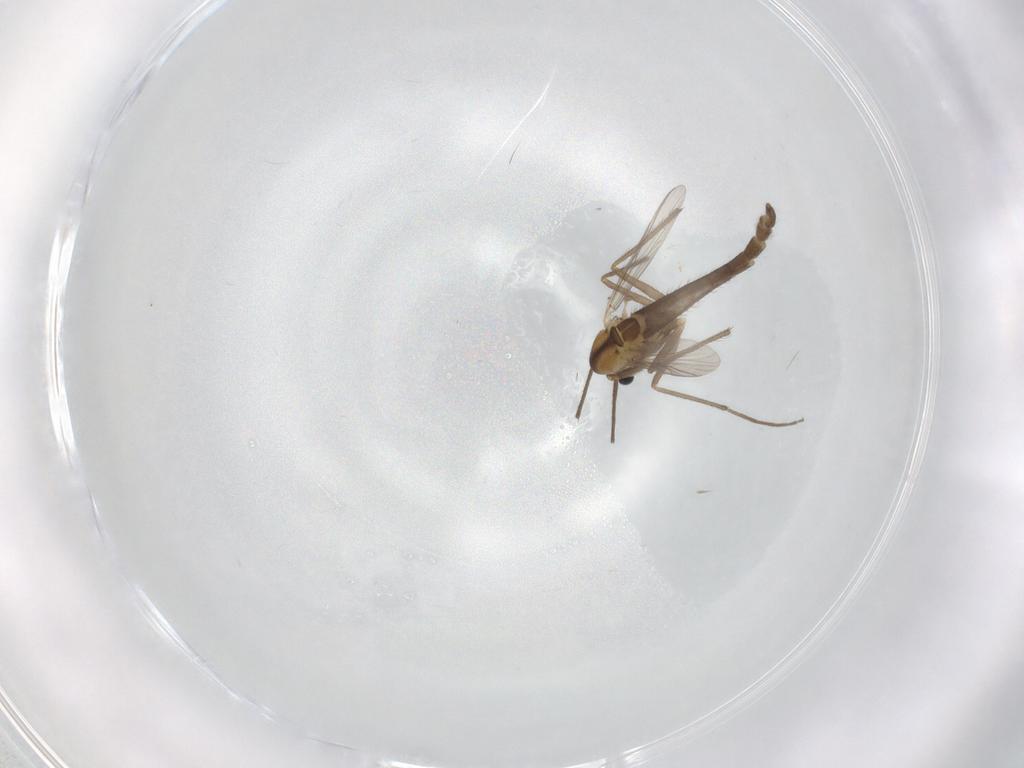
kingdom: Animalia
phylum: Arthropoda
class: Insecta
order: Diptera
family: Chironomidae
